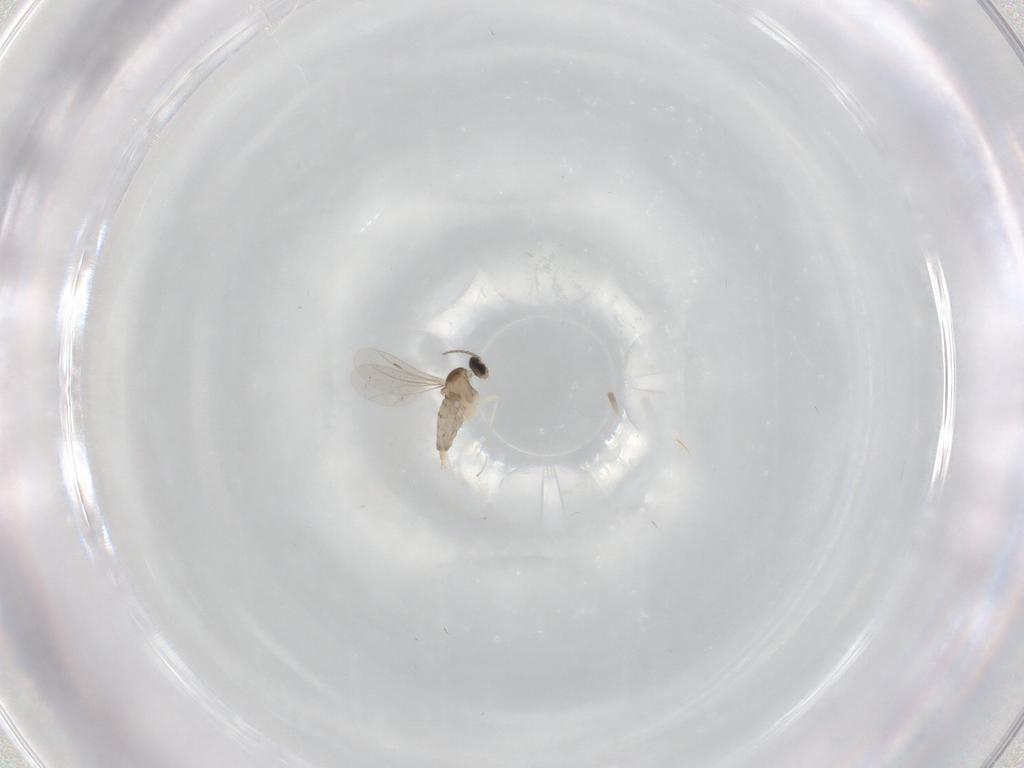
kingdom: Animalia
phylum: Arthropoda
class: Insecta
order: Diptera
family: Cecidomyiidae
